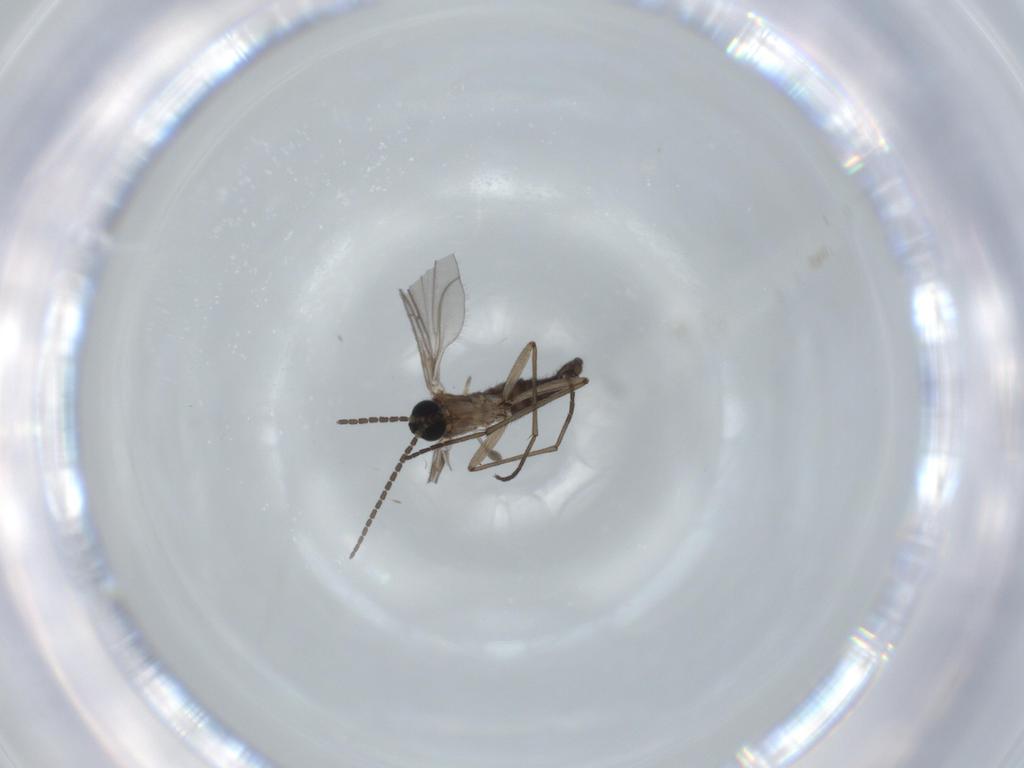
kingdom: Animalia
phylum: Arthropoda
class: Insecta
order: Diptera
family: Sciaridae
